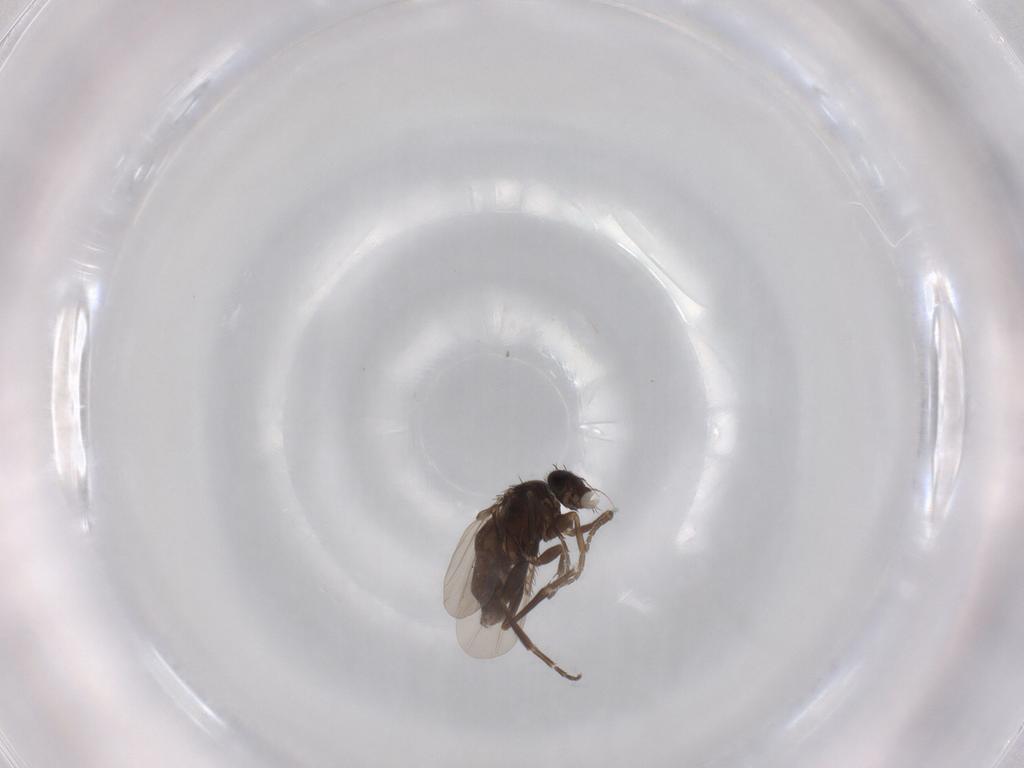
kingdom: Animalia
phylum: Arthropoda
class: Insecta
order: Diptera
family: Phoridae
